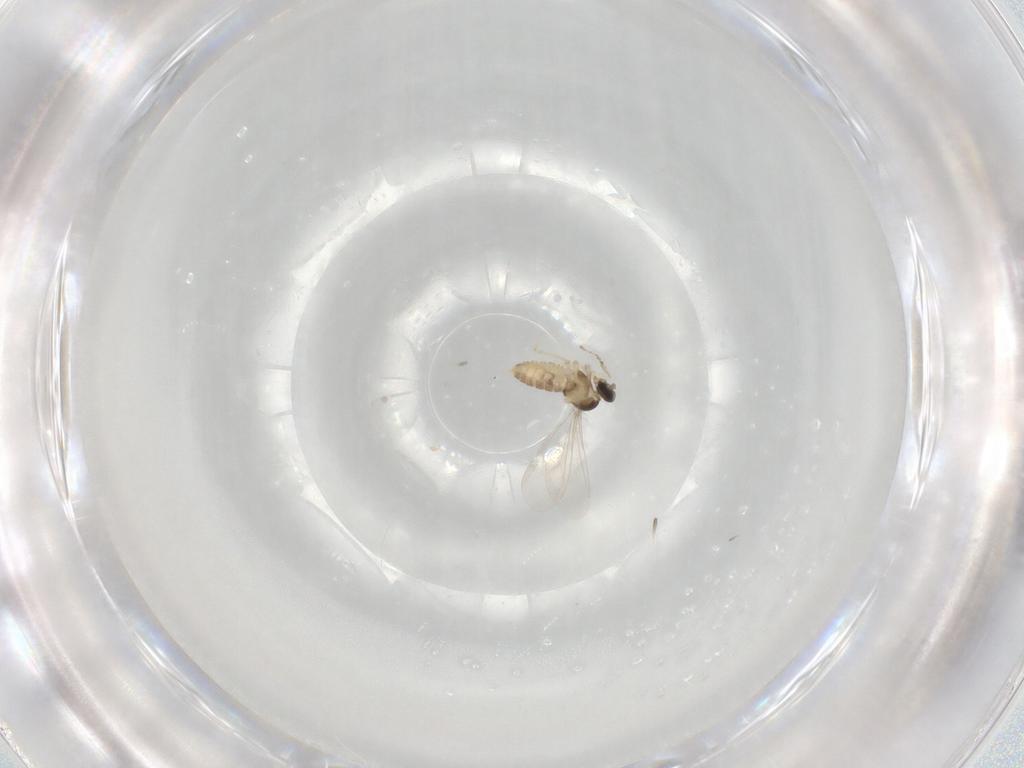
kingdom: Animalia
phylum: Arthropoda
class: Insecta
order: Diptera
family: Cecidomyiidae
